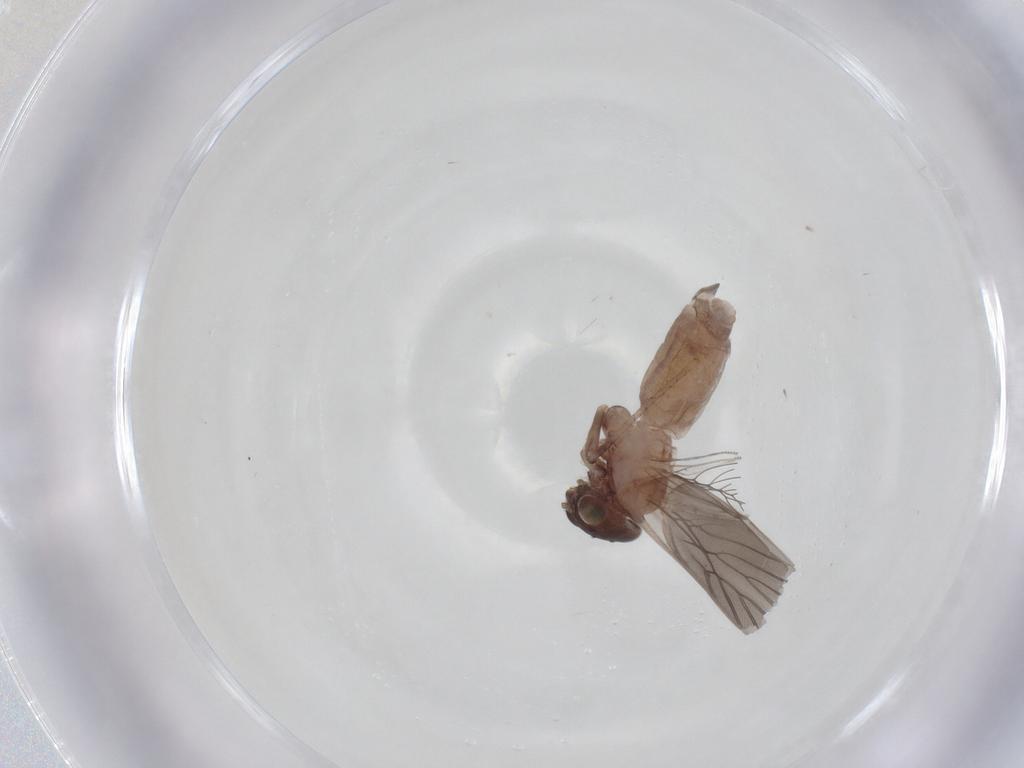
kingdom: Animalia
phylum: Arthropoda
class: Insecta
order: Psocodea
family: Lepidopsocidae
